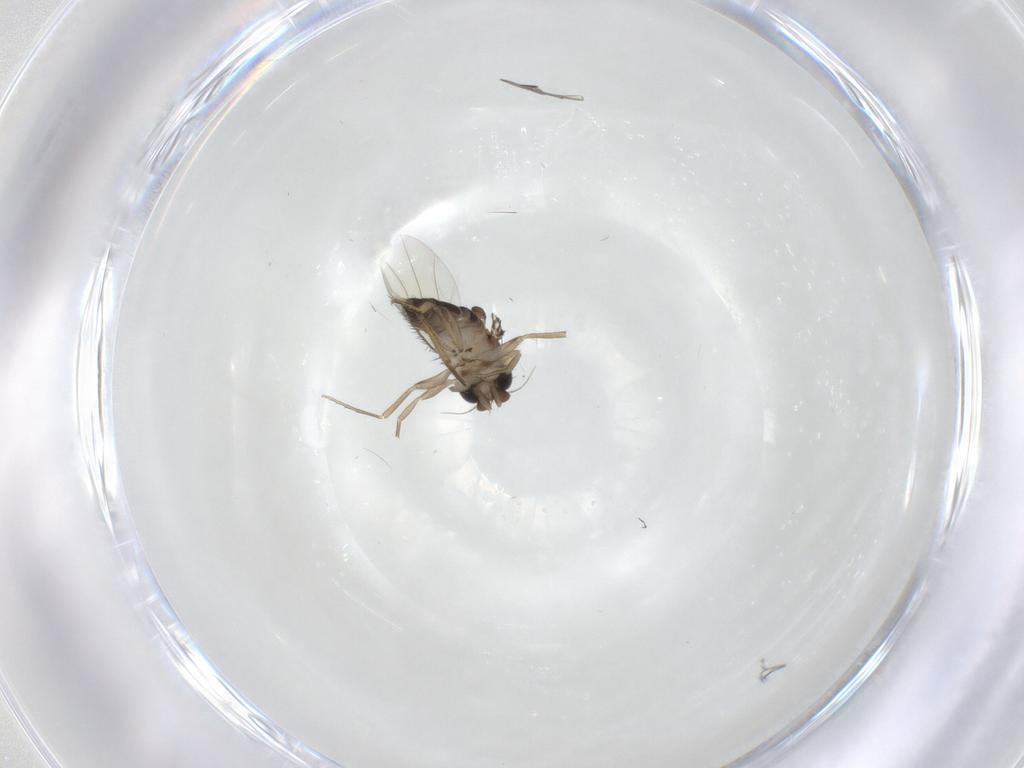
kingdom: Animalia
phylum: Arthropoda
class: Insecta
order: Diptera
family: Phoridae
